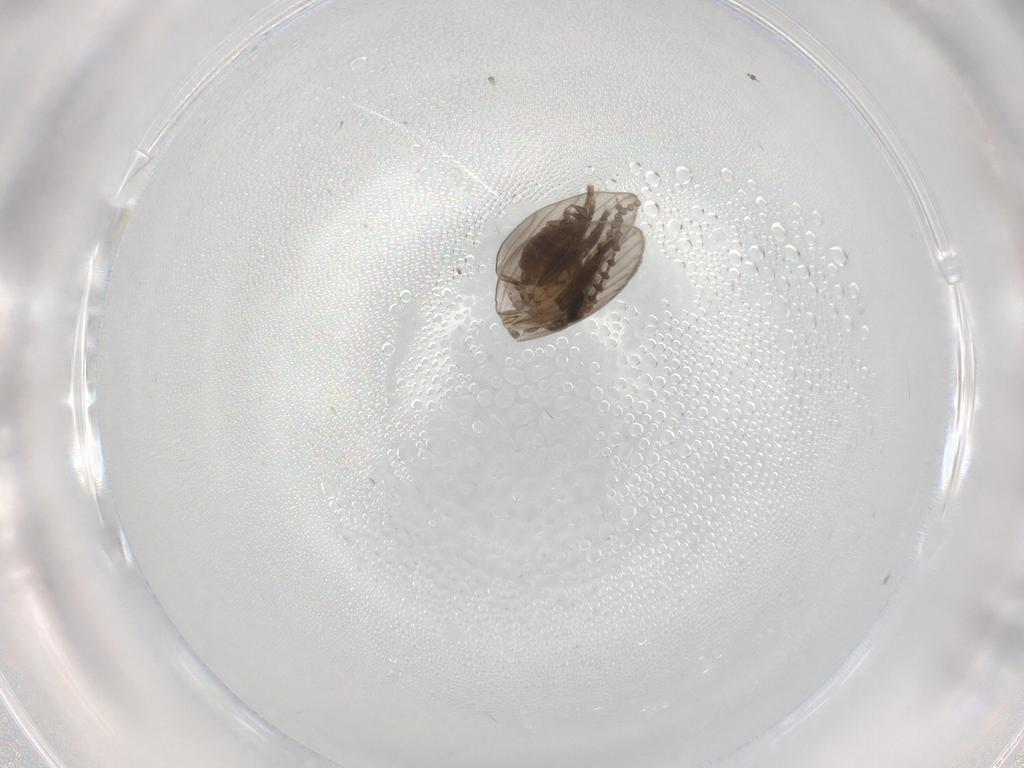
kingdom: Animalia
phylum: Arthropoda
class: Insecta
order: Diptera
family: Ceratopogonidae
